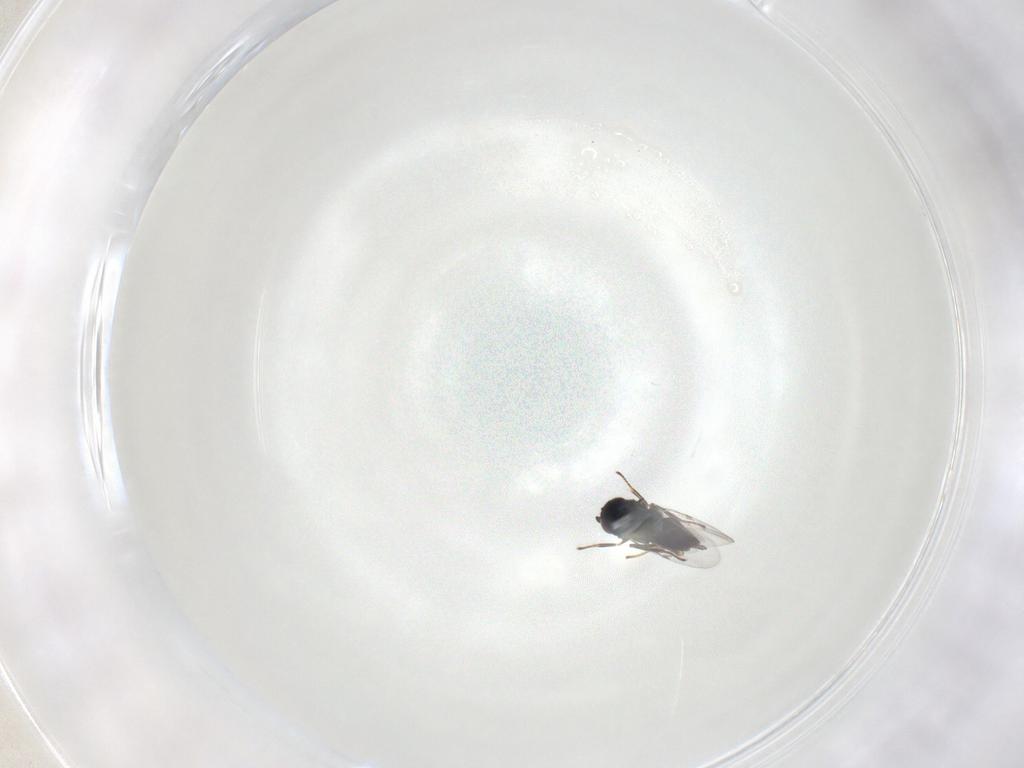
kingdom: Animalia
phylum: Arthropoda
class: Insecta
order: Hymenoptera
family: Encyrtidae
